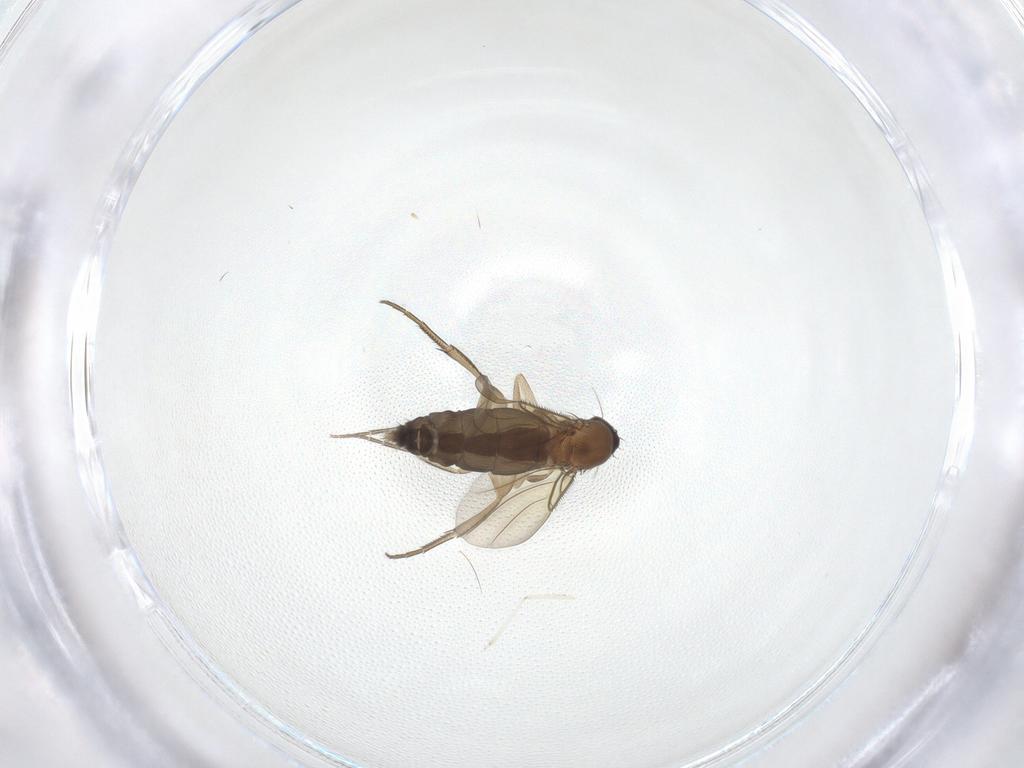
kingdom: Animalia
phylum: Arthropoda
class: Insecta
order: Diptera
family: Phoridae
